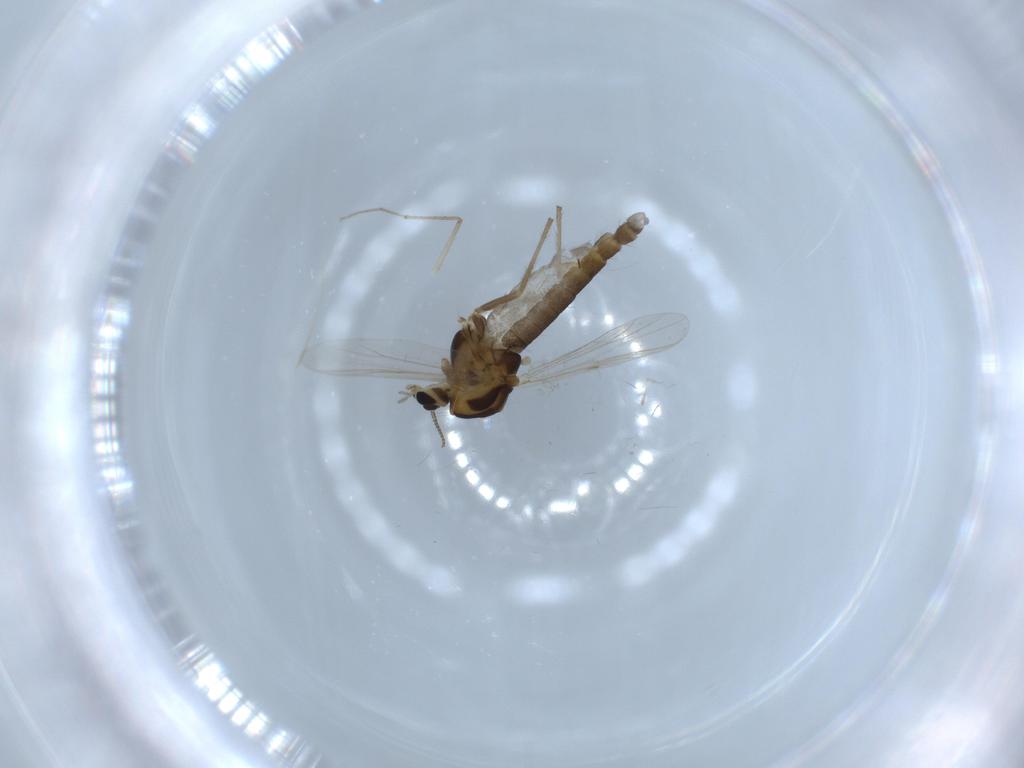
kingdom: Animalia
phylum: Arthropoda
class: Insecta
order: Diptera
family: Chironomidae
